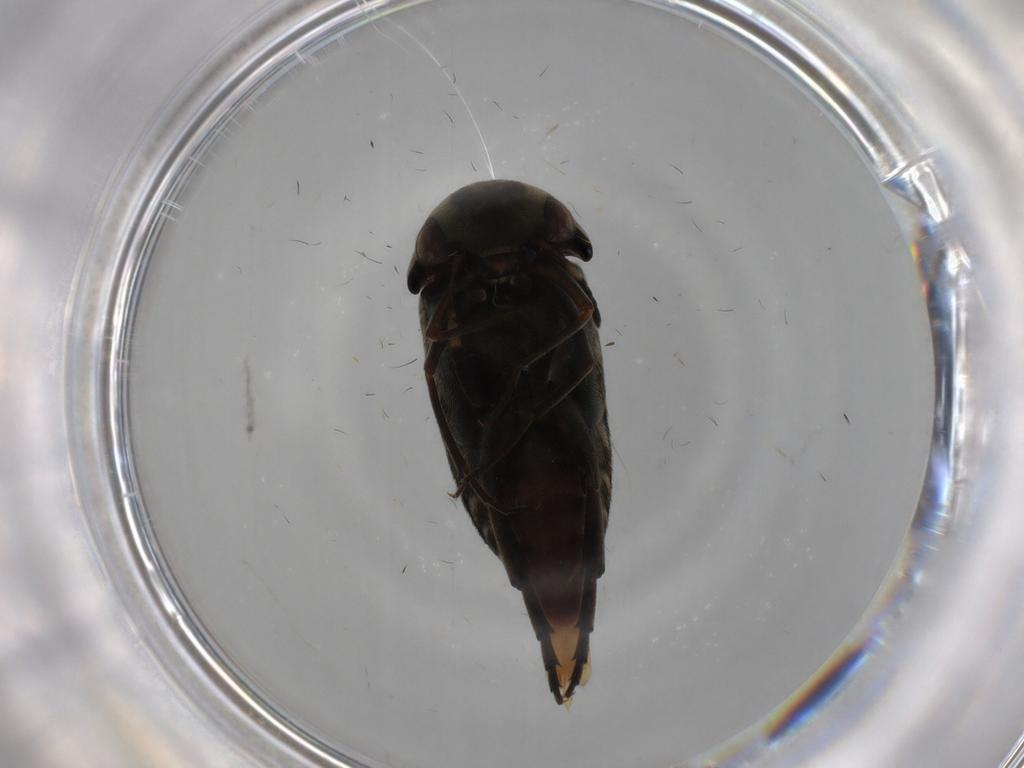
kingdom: Animalia
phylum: Arthropoda
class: Insecta
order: Coleoptera
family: Mordellidae
